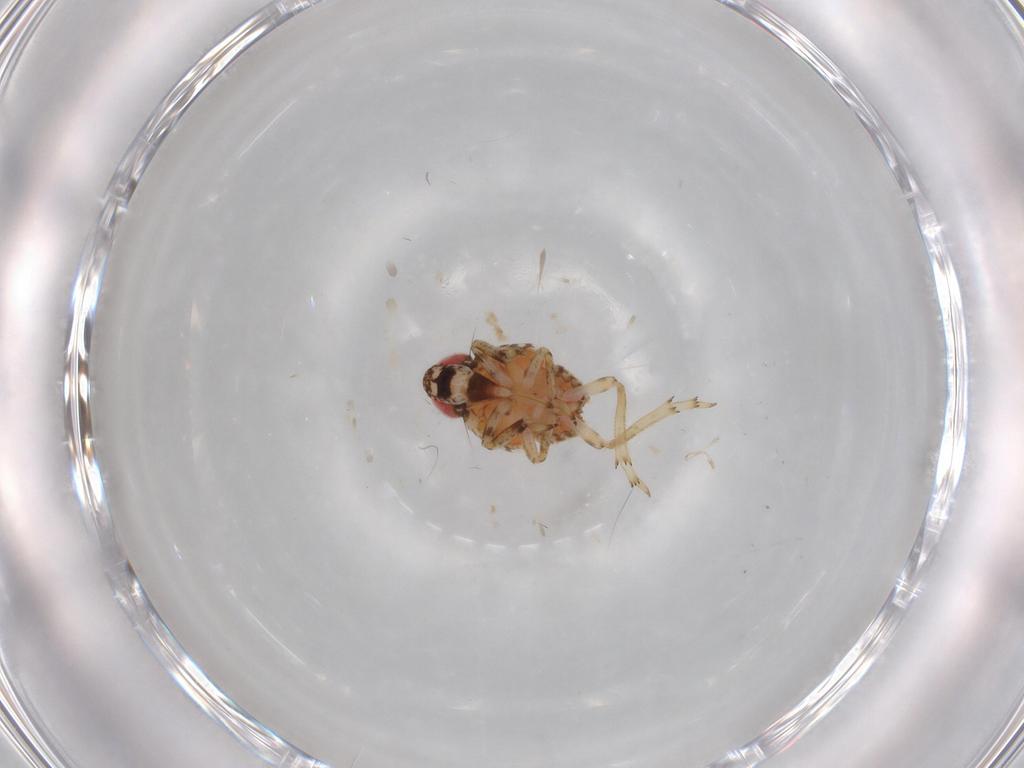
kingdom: Animalia
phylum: Arthropoda
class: Insecta
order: Hemiptera
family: Issidae
